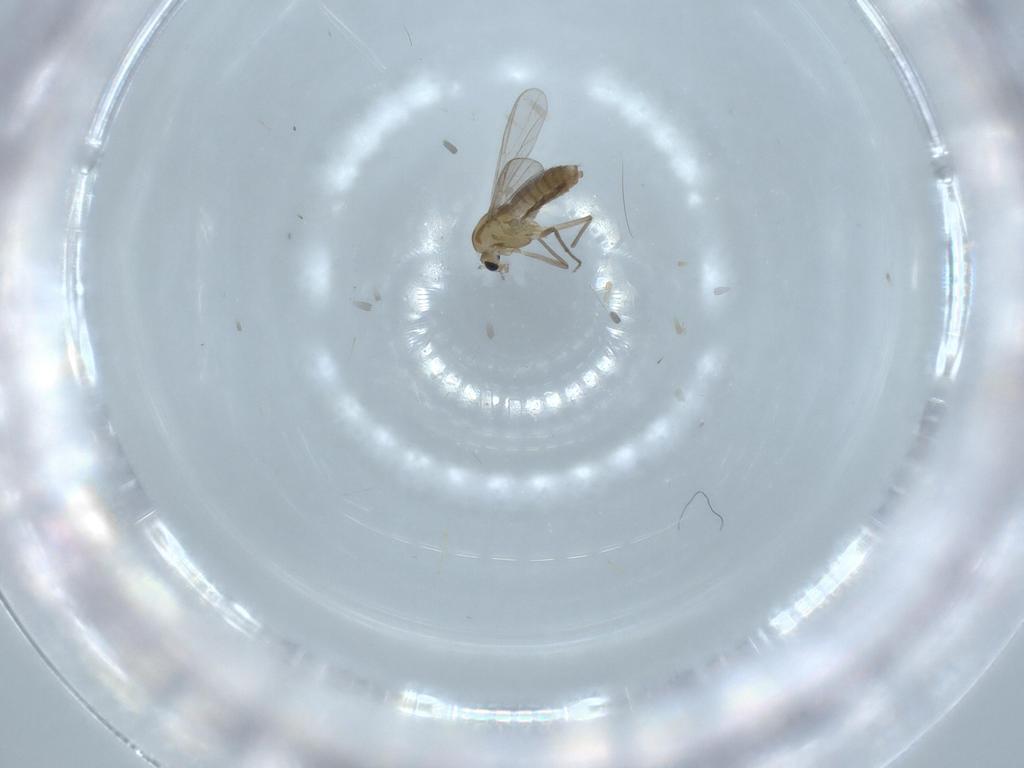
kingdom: Animalia
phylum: Arthropoda
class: Insecta
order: Diptera
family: Chironomidae
